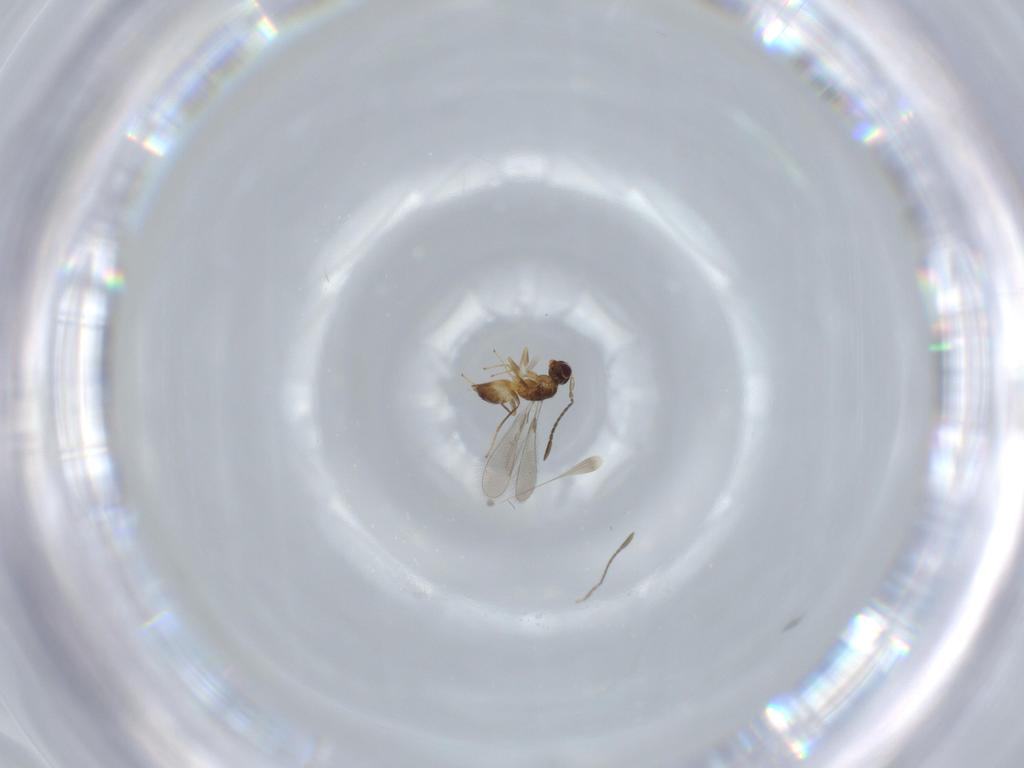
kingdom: Animalia
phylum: Arthropoda
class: Insecta
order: Hymenoptera
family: Mymaridae
